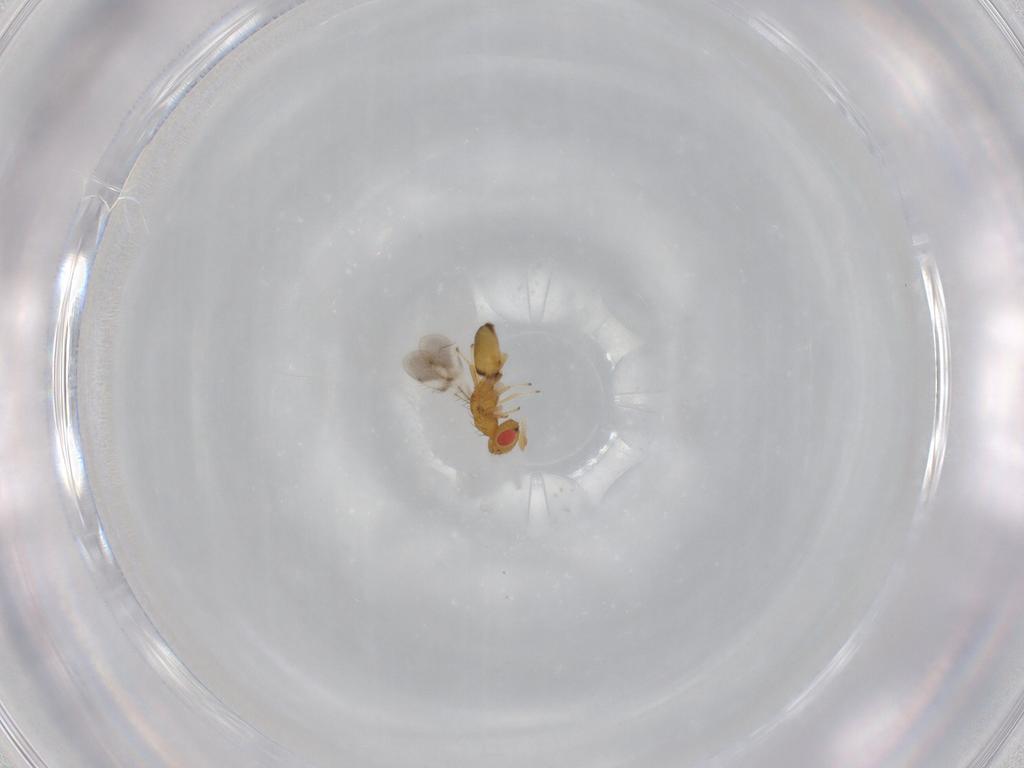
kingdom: Animalia
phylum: Arthropoda
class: Insecta
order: Hymenoptera
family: Eulophidae
